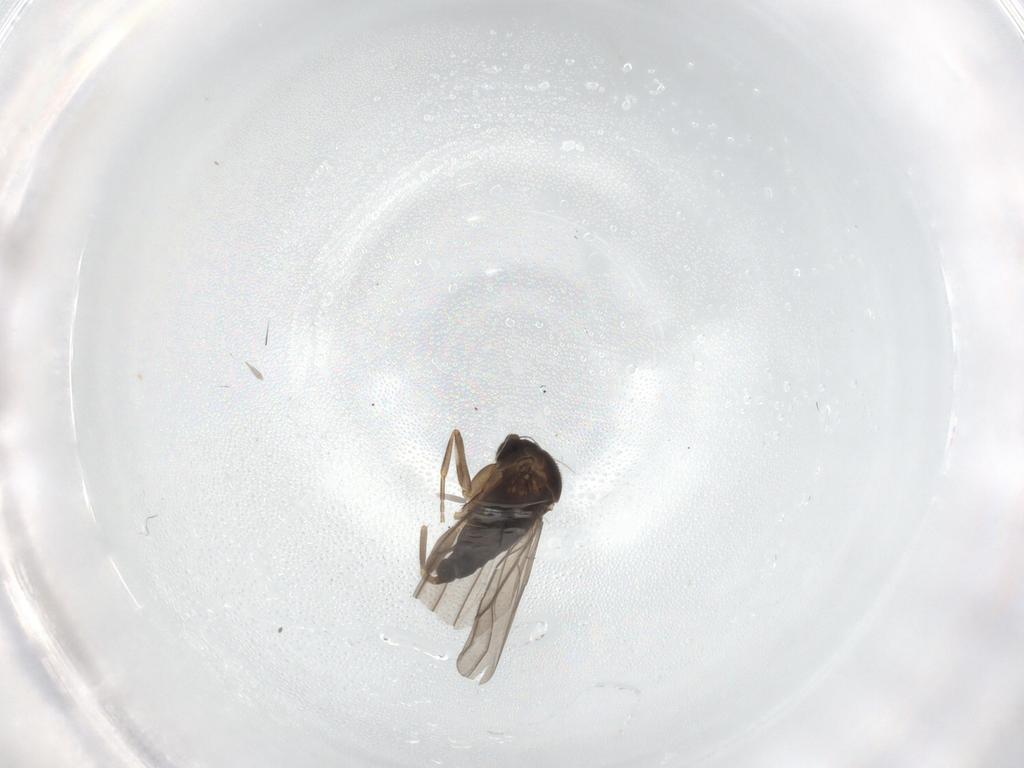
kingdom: Animalia
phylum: Arthropoda
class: Insecta
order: Diptera
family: Phoridae
